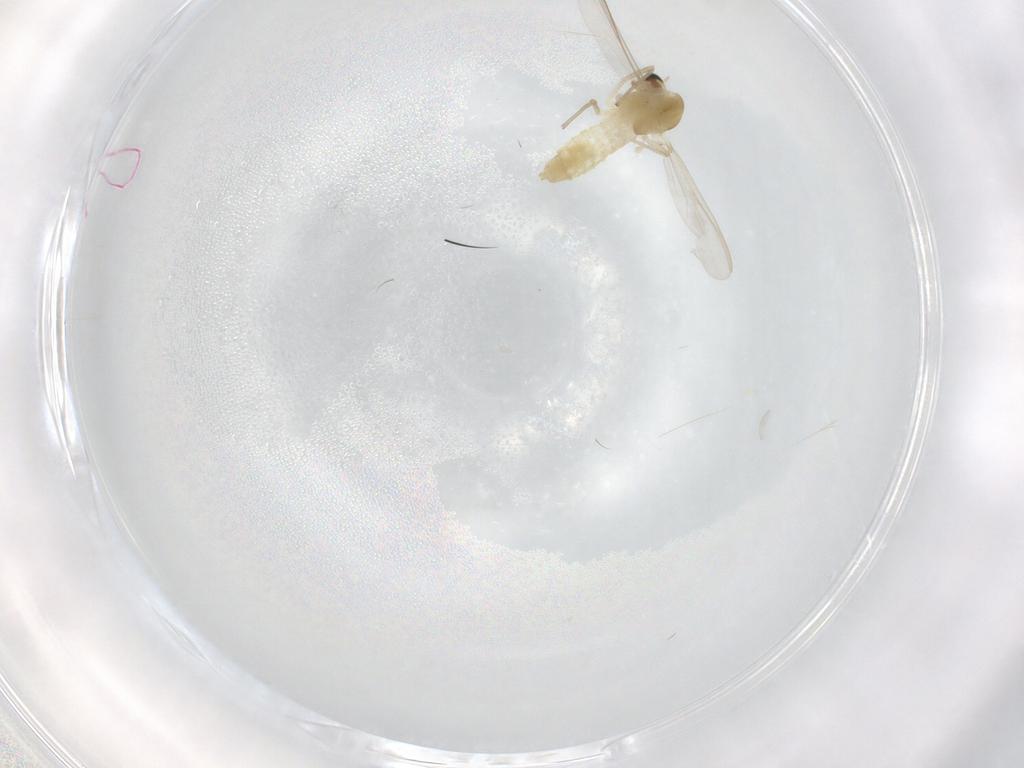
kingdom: Animalia
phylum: Arthropoda
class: Insecta
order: Diptera
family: Chironomidae
